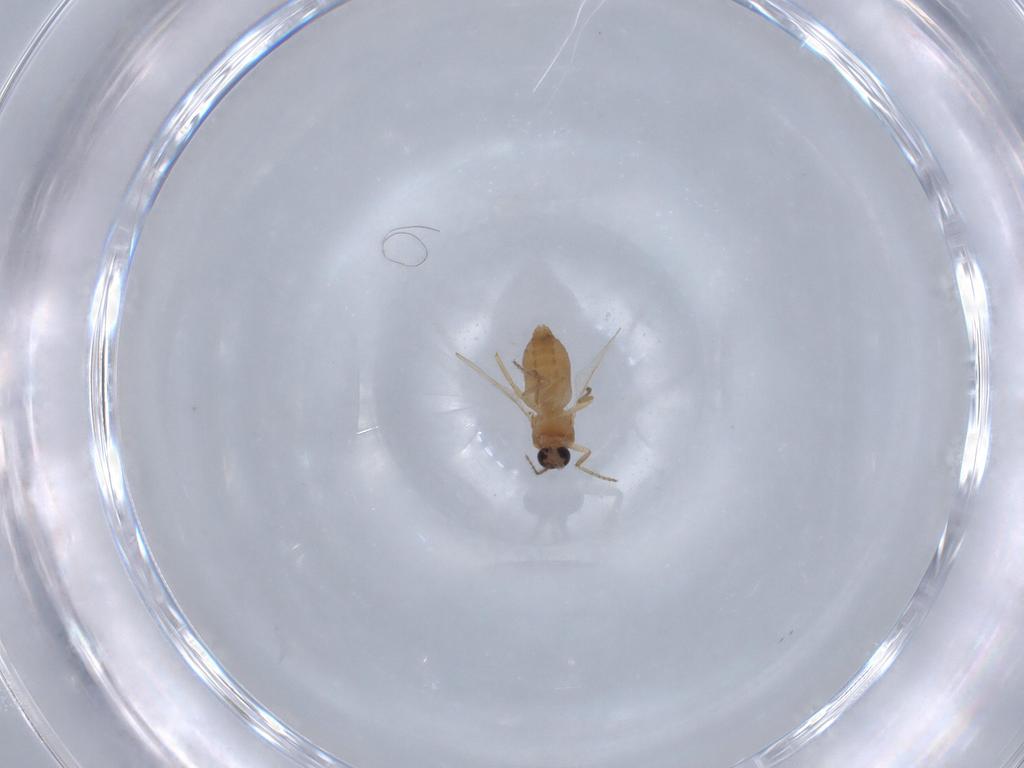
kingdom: Animalia
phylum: Arthropoda
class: Insecta
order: Diptera
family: Ceratopogonidae
